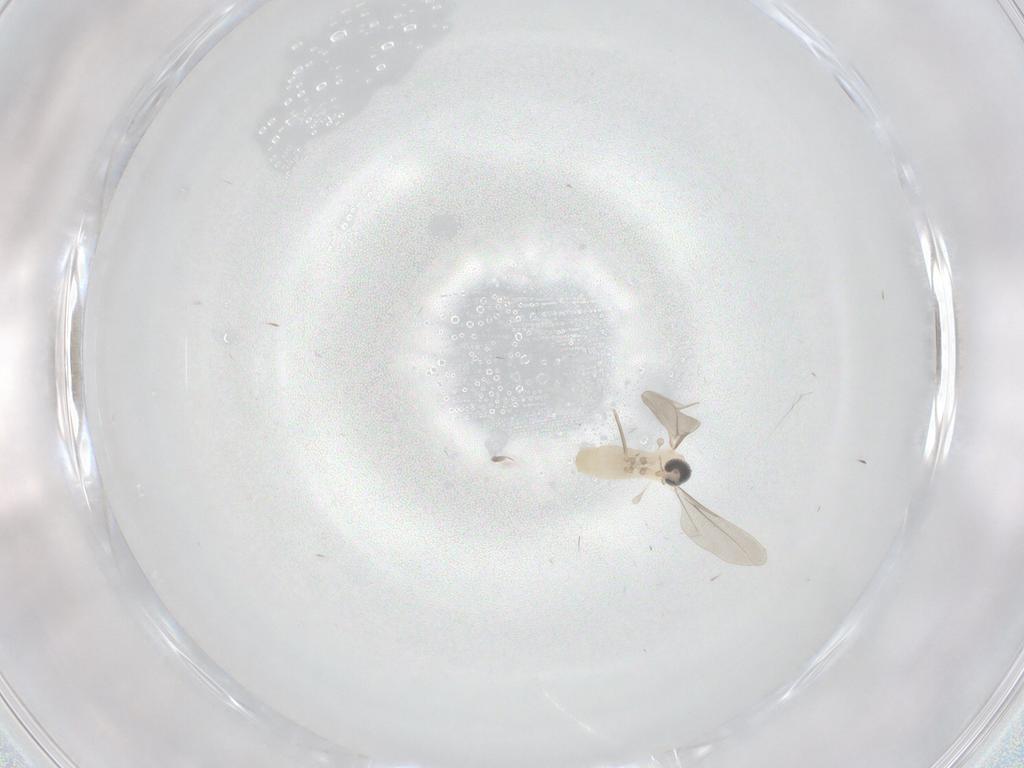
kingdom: Animalia
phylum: Arthropoda
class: Insecta
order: Diptera
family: Cecidomyiidae
